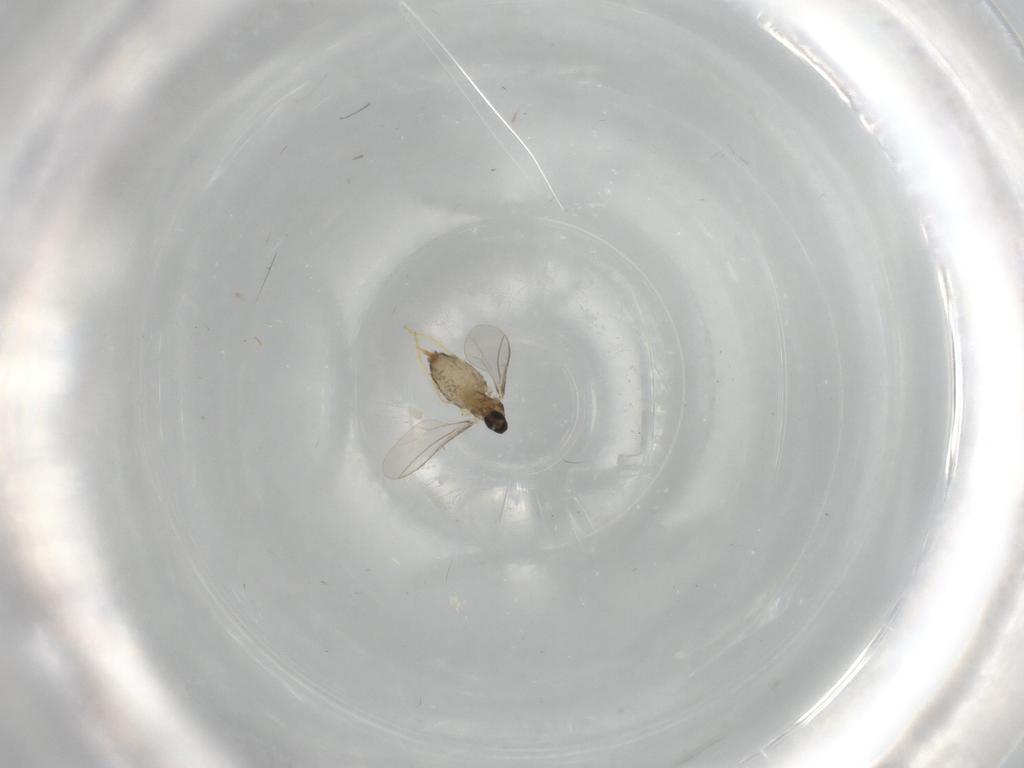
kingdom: Animalia
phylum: Arthropoda
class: Insecta
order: Diptera
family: Cecidomyiidae
